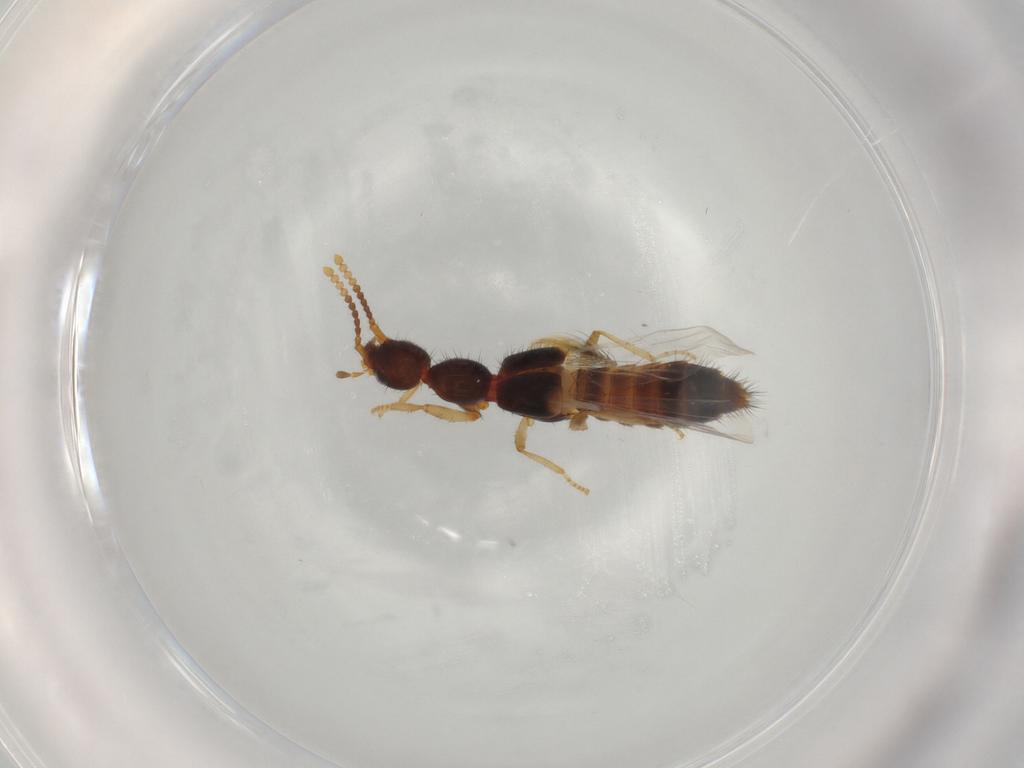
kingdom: Animalia
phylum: Arthropoda
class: Insecta
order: Coleoptera
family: Staphylinidae
